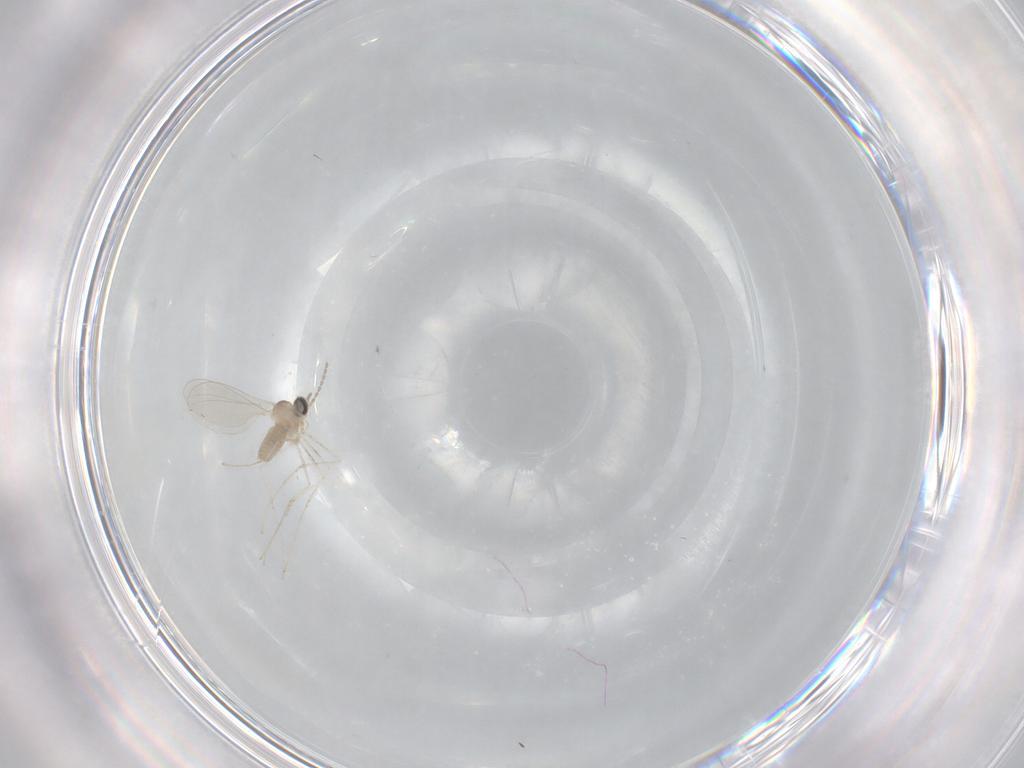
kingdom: Animalia
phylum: Arthropoda
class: Insecta
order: Diptera
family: Cecidomyiidae
